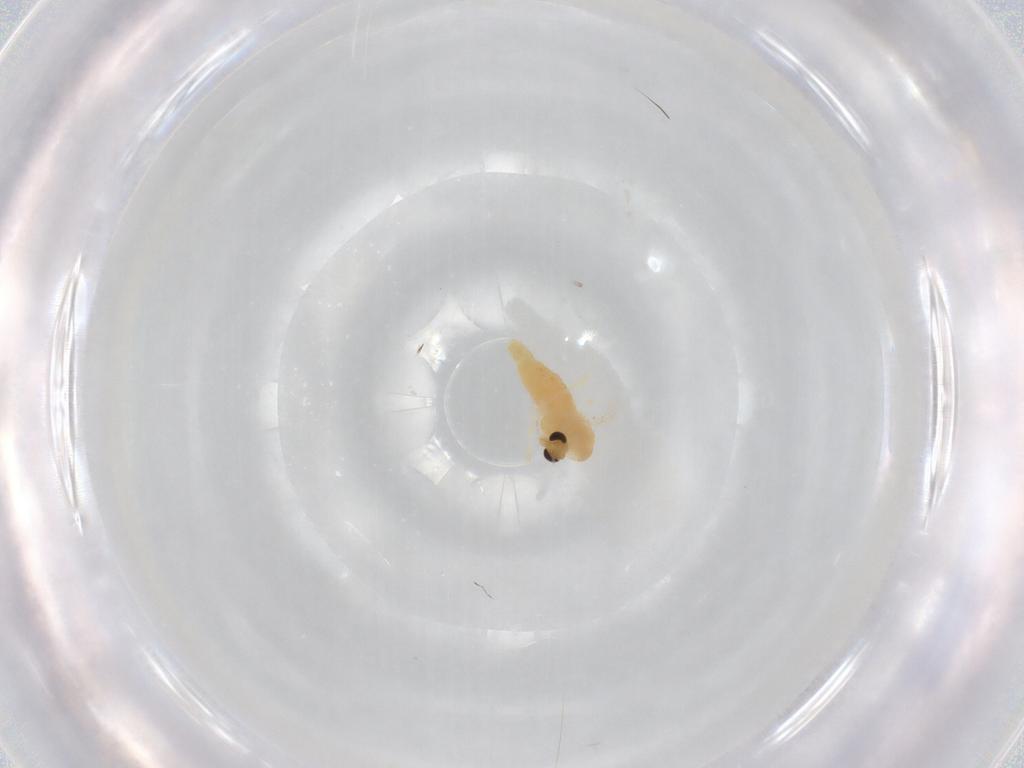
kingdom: Animalia
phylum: Arthropoda
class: Insecta
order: Diptera
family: Chironomidae
